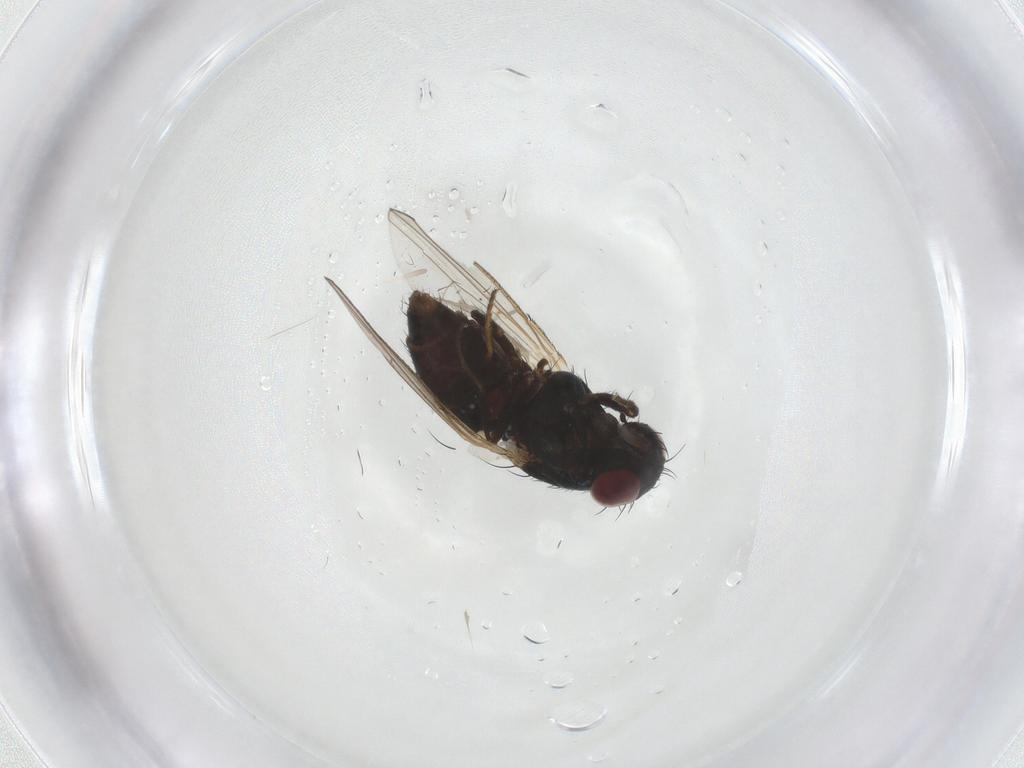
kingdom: Animalia
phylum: Arthropoda
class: Insecta
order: Diptera
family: Carnidae
